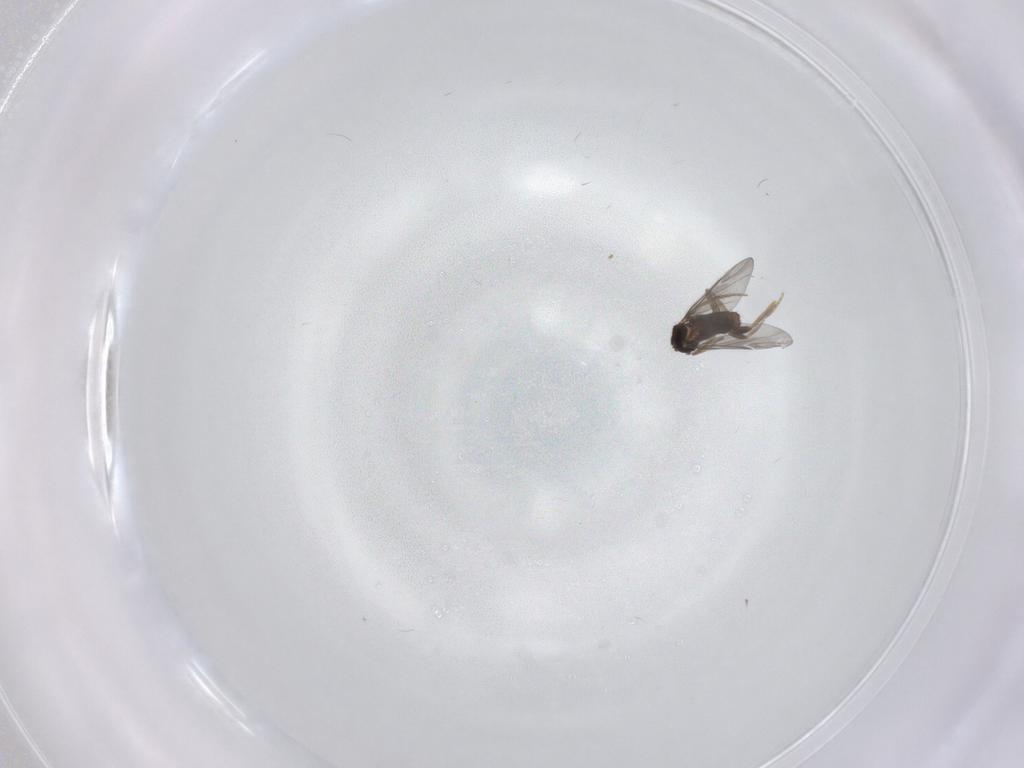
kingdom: Animalia
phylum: Arthropoda
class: Insecta
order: Diptera
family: Phoridae
